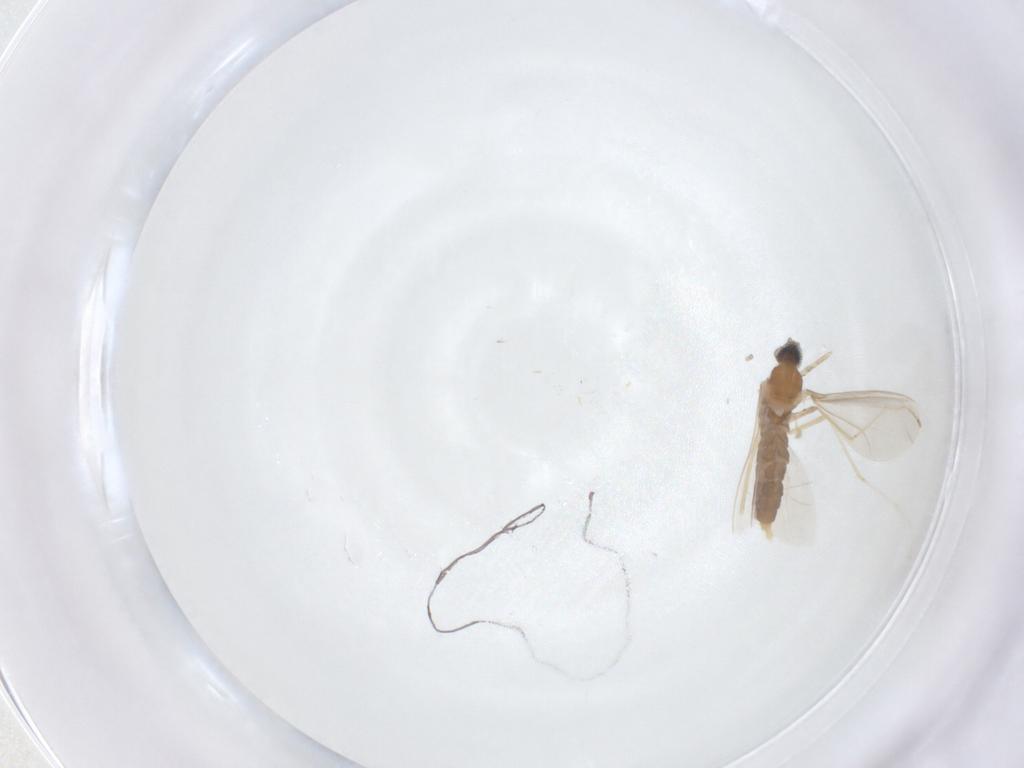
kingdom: Animalia
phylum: Arthropoda
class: Insecta
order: Diptera
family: Cecidomyiidae
